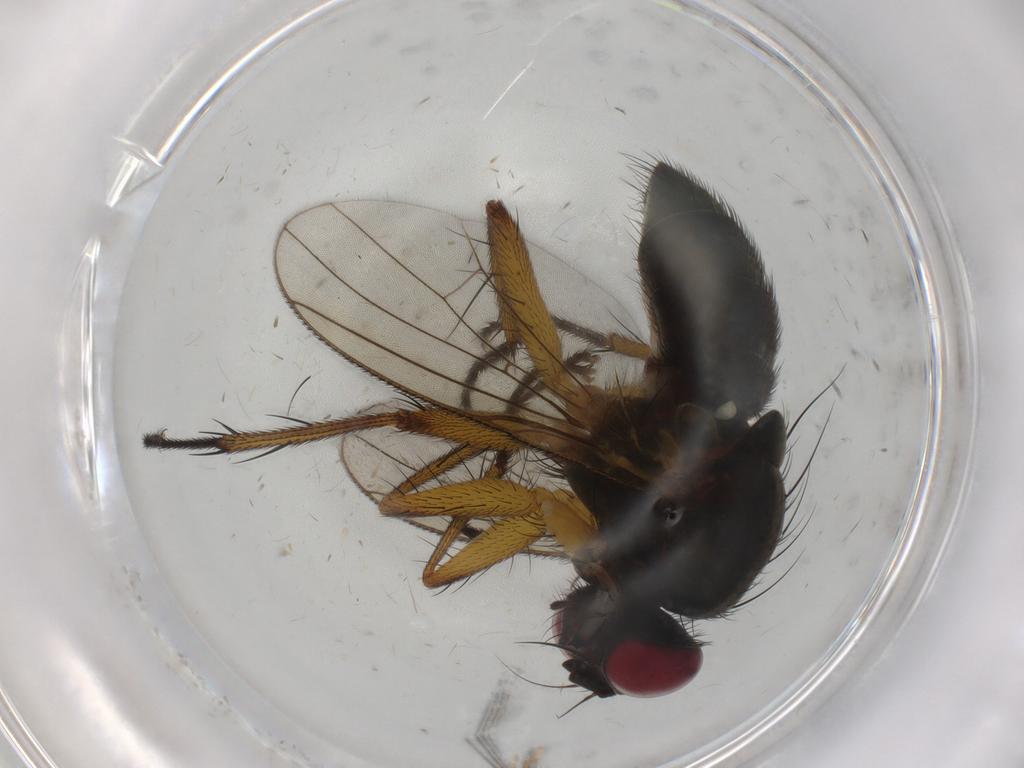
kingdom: Animalia
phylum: Arthropoda
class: Insecta
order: Diptera
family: Muscidae
